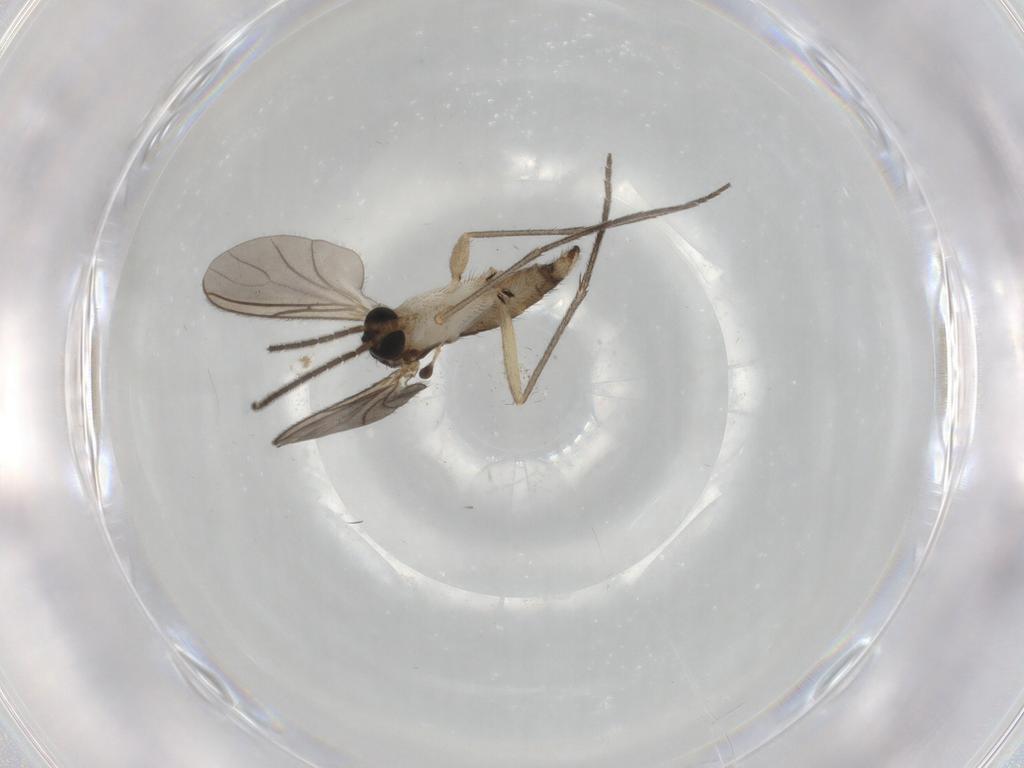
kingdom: Animalia
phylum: Arthropoda
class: Insecta
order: Diptera
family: Sciaridae
